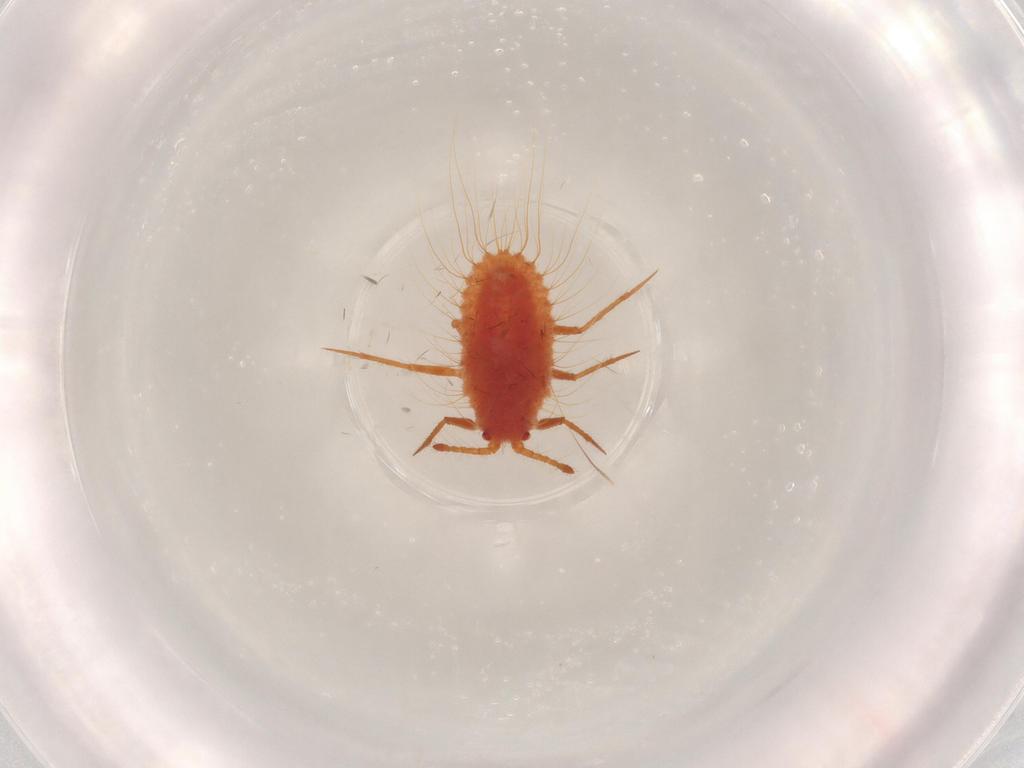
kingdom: Animalia
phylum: Arthropoda
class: Insecta
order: Hemiptera
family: Monophlebidae
